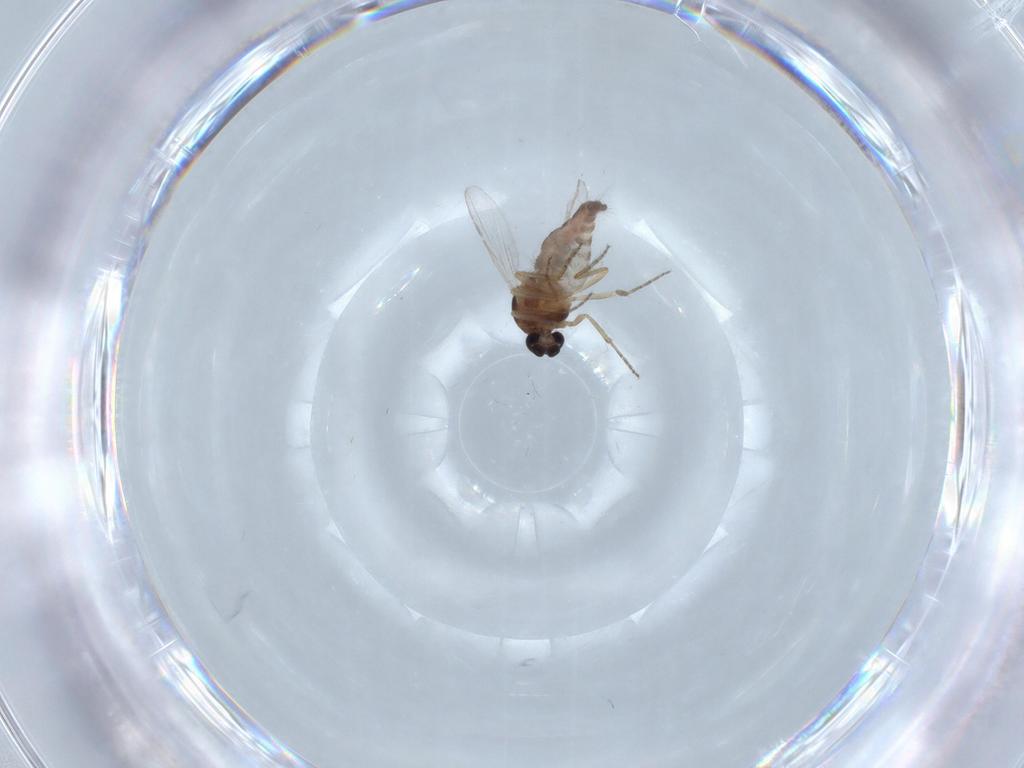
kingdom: Animalia
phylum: Arthropoda
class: Insecta
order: Diptera
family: Ceratopogonidae
